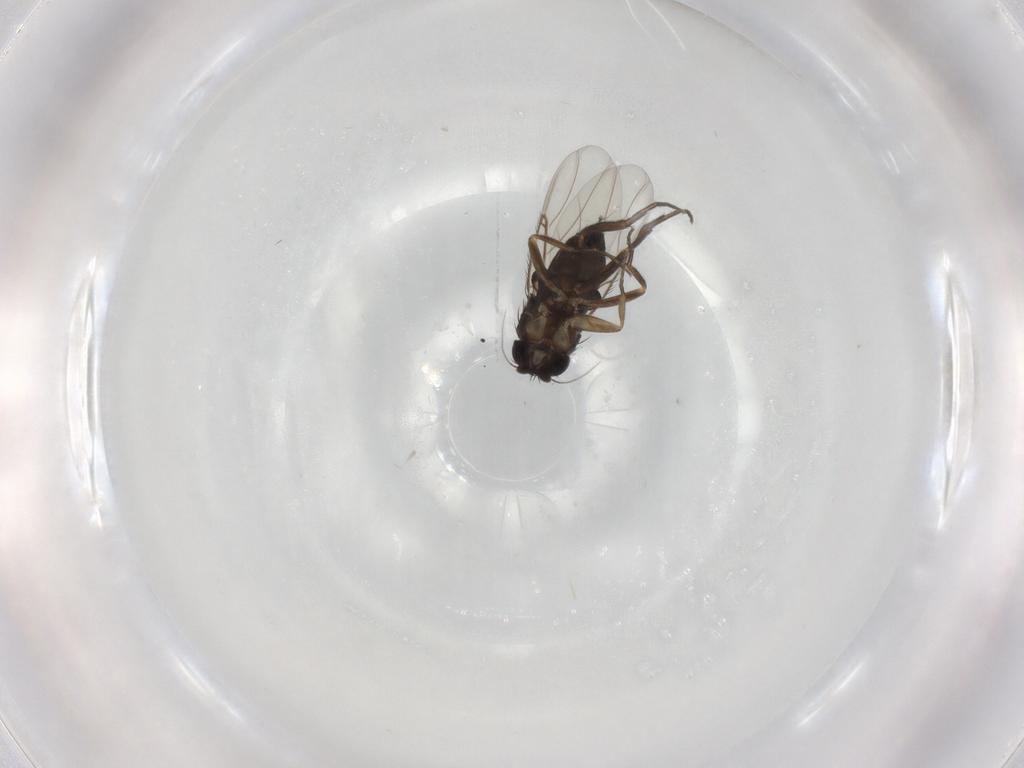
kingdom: Animalia
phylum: Arthropoda
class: Insecta
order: Diptera
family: Phoridae
